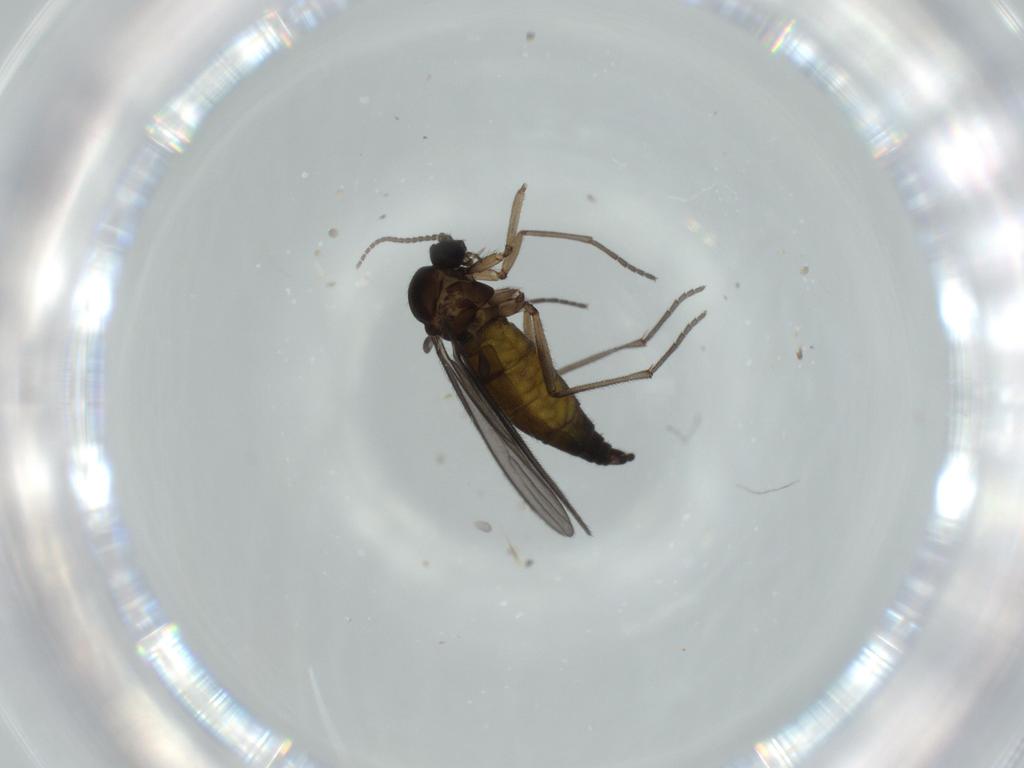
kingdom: Animalia
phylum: Arthropoda
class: Insecta
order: Diptera
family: Sciaridae
